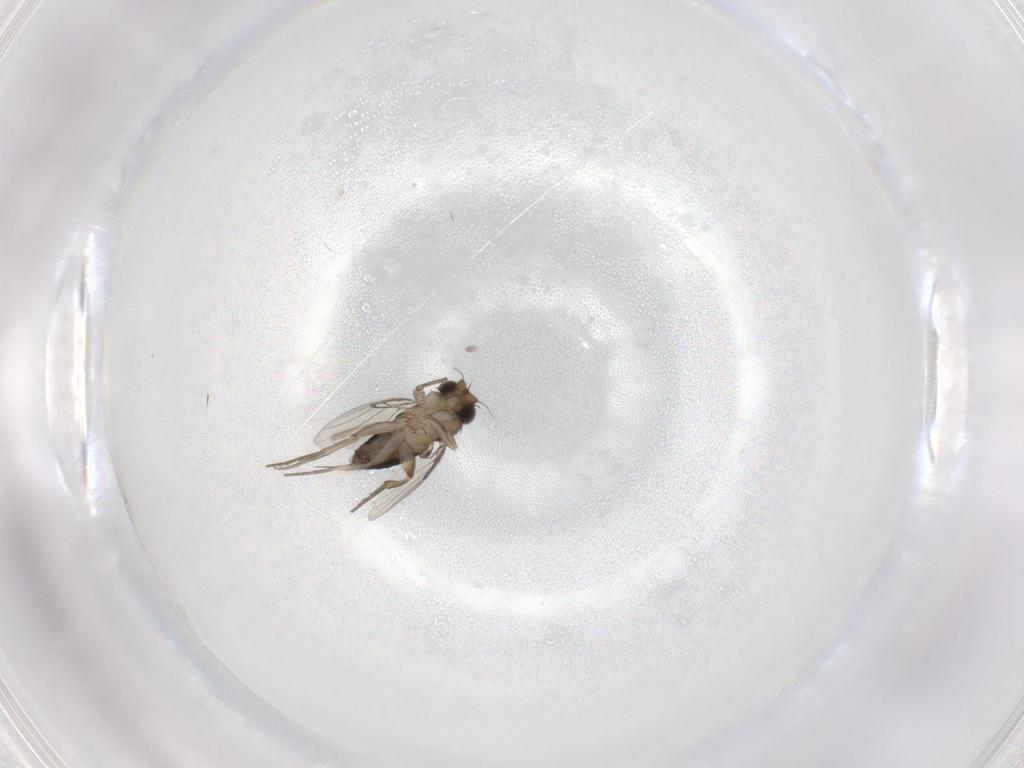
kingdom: Animalia
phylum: Arthropoda
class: Insecta
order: Diptera
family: Phoridae
